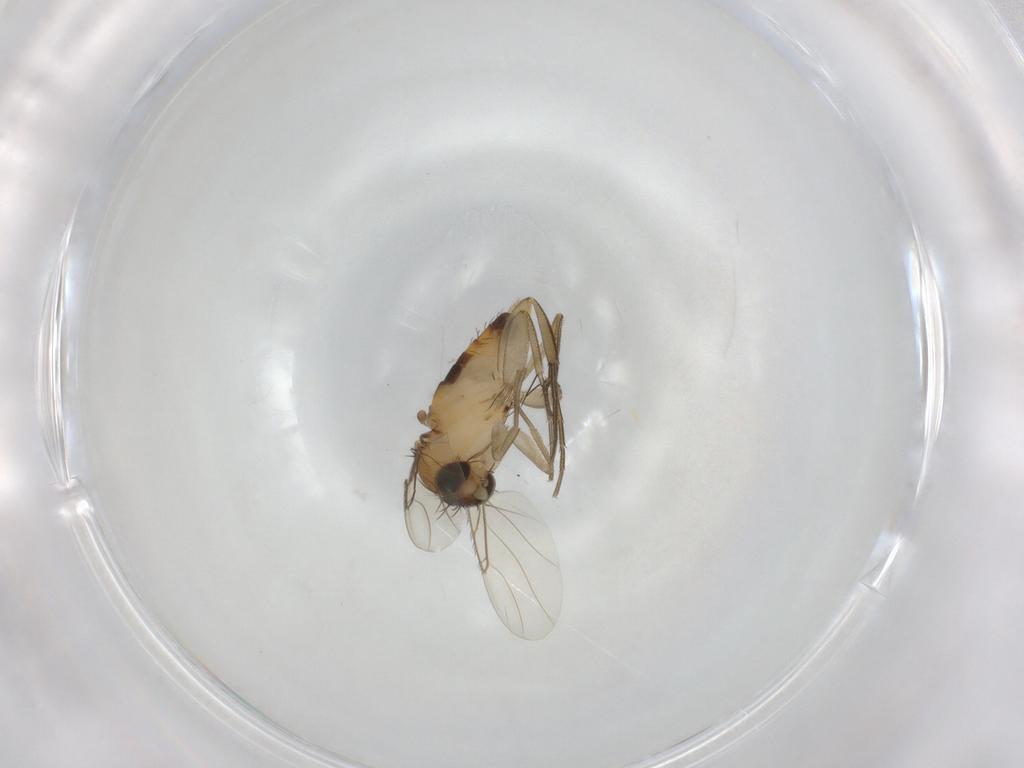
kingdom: Animalia
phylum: Arthropoda
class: Insecta
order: Diptera
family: Phoridae
